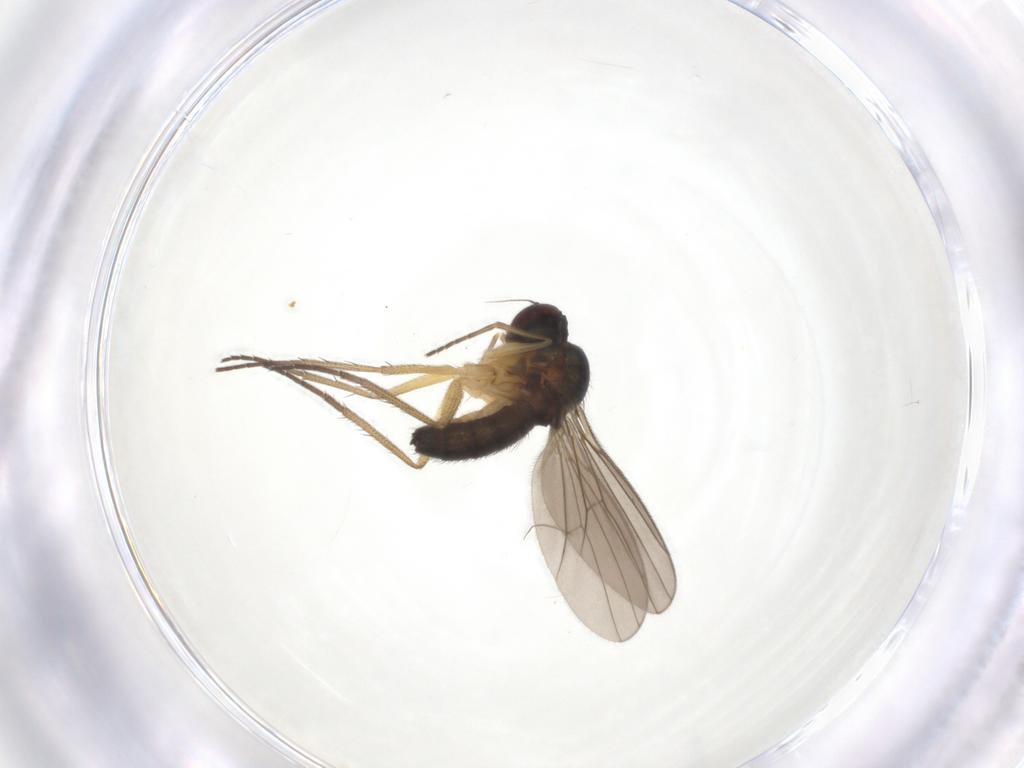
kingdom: Animalia
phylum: Arthropoda
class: Insecta
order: Diptera
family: Dolichopodidae
